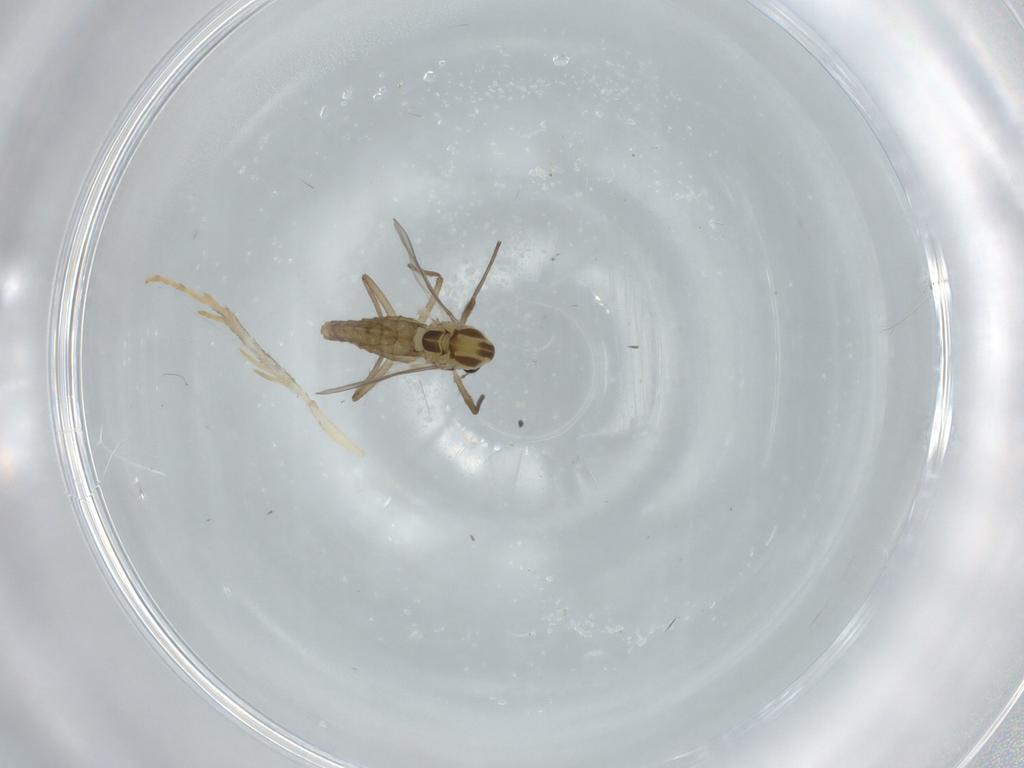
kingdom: Animalia
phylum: Arthropoda
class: Insecta
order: Diptera
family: Chironomidae
